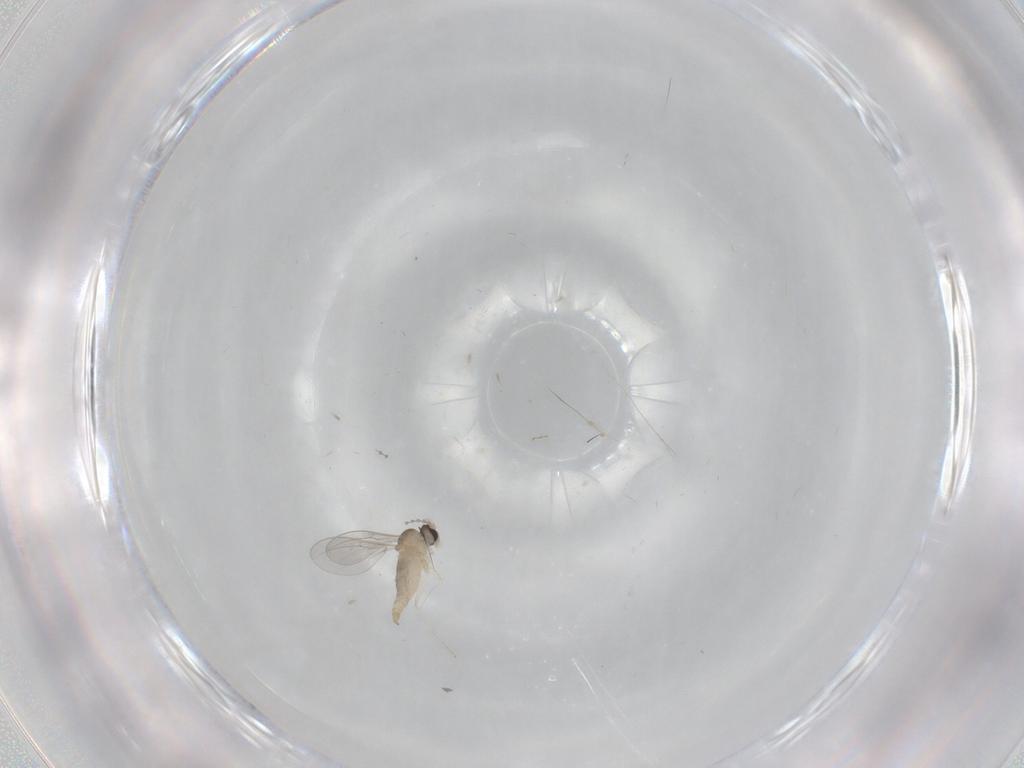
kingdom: Animalia
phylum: Arthropoda
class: Insecta
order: Diptera
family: Cecidomyiidae
